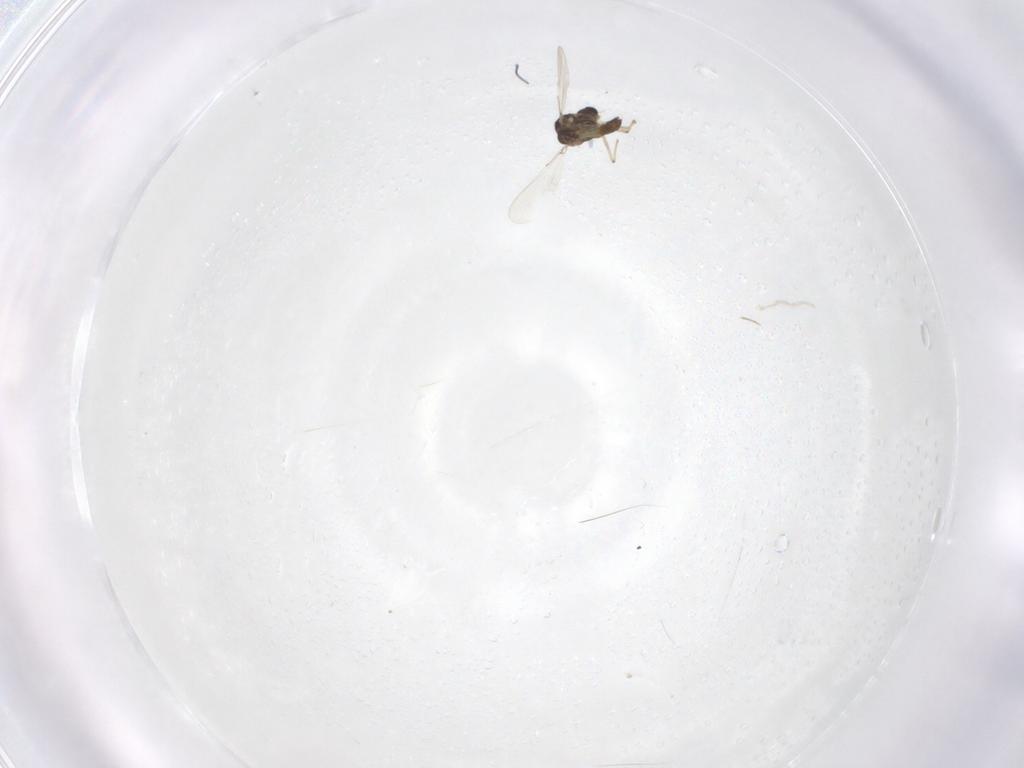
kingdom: Animalia
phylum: Arthropoda
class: Insecta
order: Diptera
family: Chironomidae
